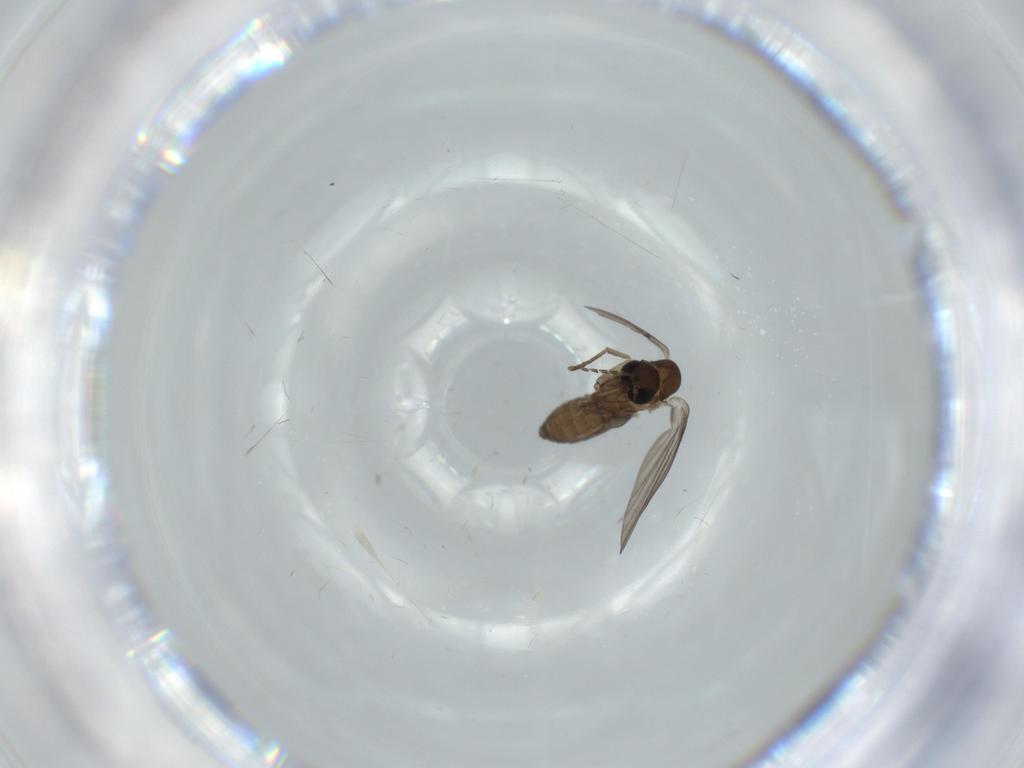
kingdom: Animalia
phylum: Arthropoda
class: Insecta
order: Diptera
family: Psychodidae
